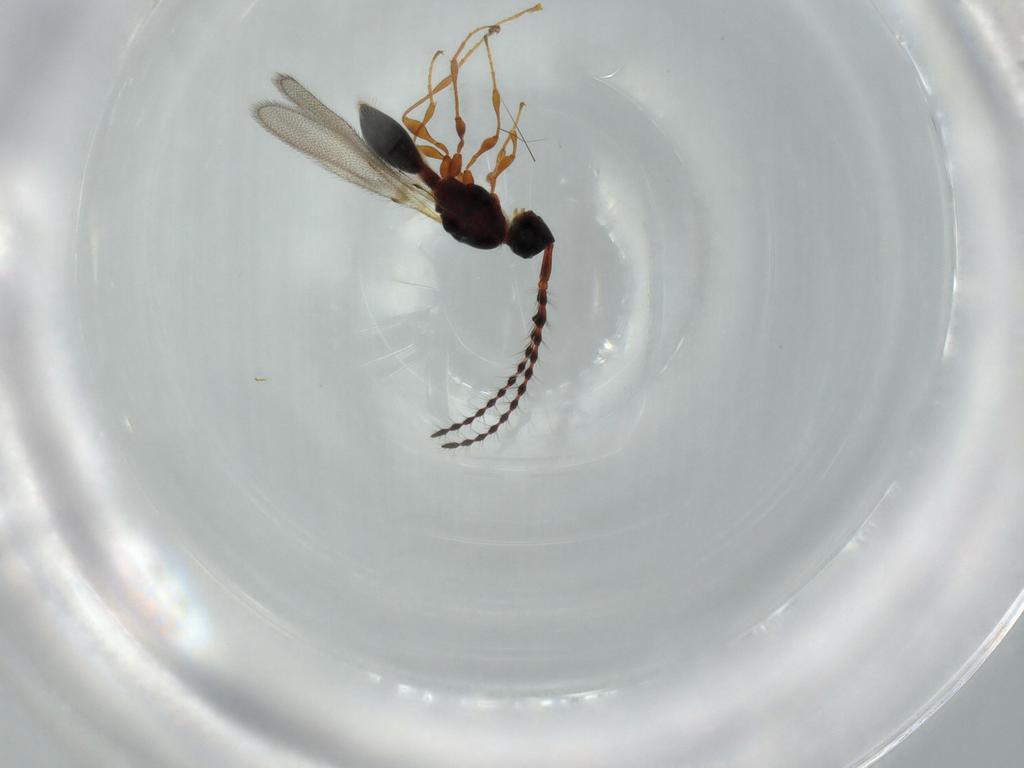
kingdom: Animalia
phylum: Arthropoda
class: Insecta
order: Hymenoptera
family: Diapriidae
